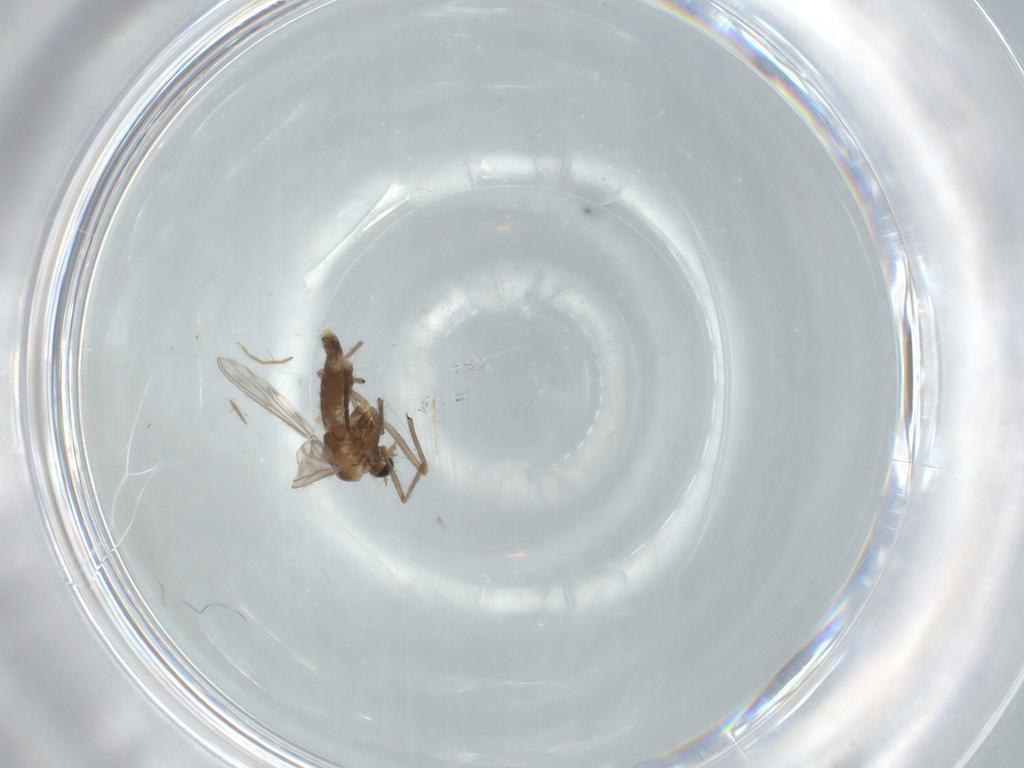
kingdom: Animalia
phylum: Arthropoda
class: Insecta
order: Diptera
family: Chironomidae
